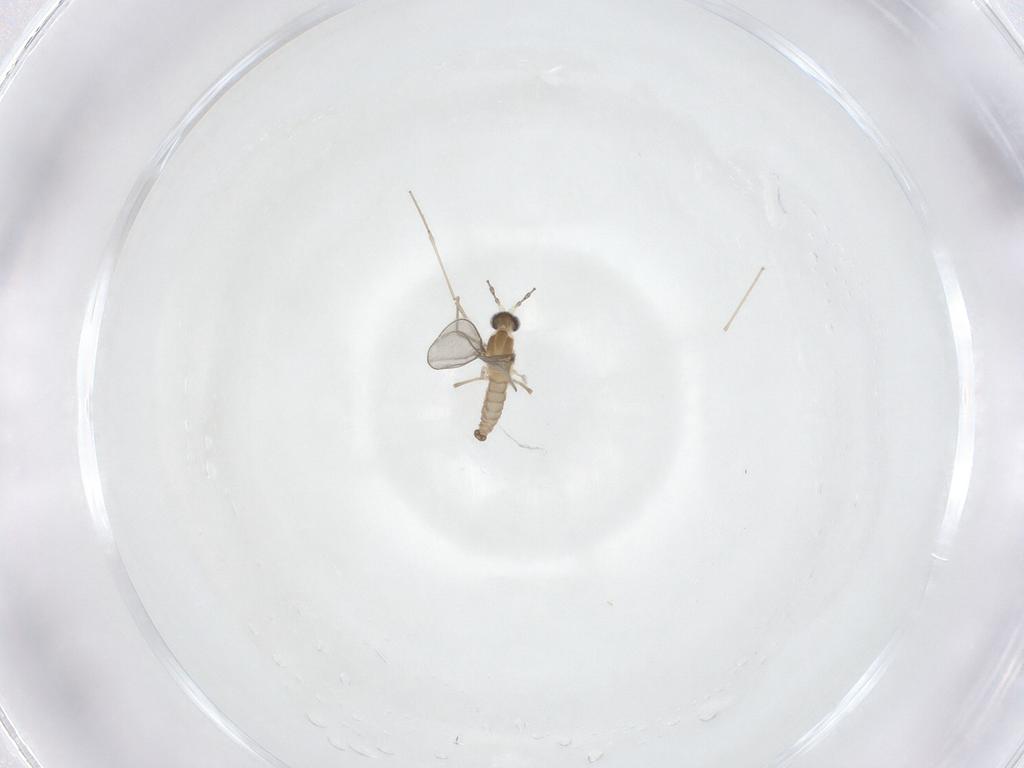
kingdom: Animalia
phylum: Arthropoda
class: Insecta
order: Diptera
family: Cecidomyiidae
